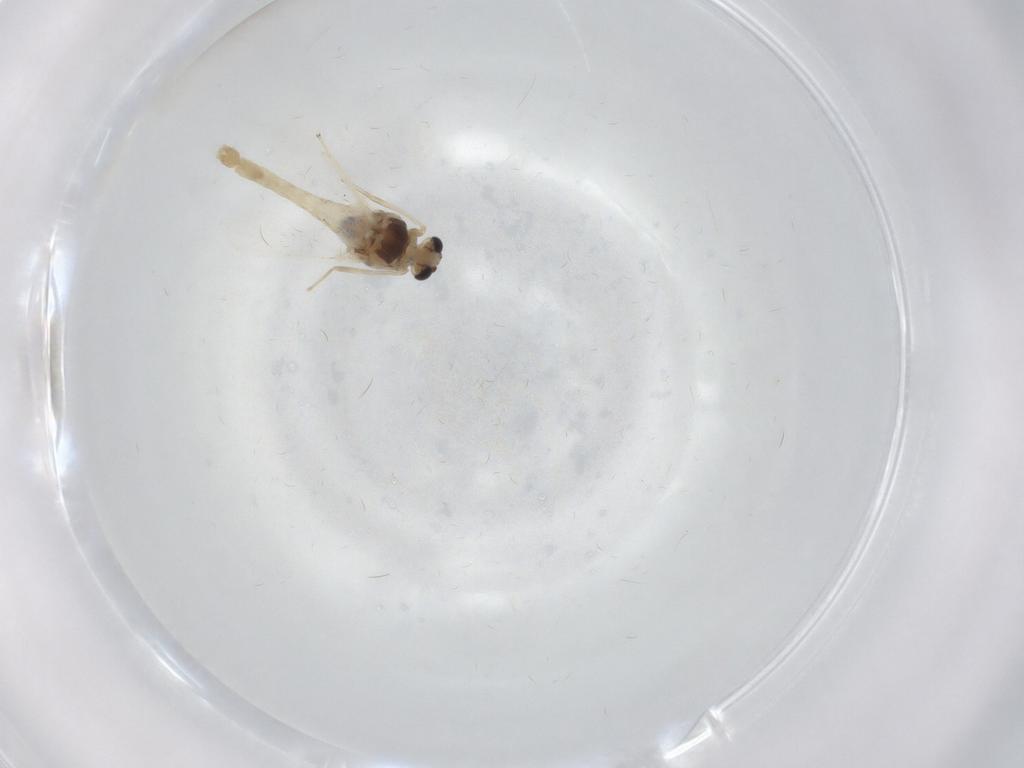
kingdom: Animalia
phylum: Arthropoda
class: Insecta
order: Diptera
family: Chironomidae
